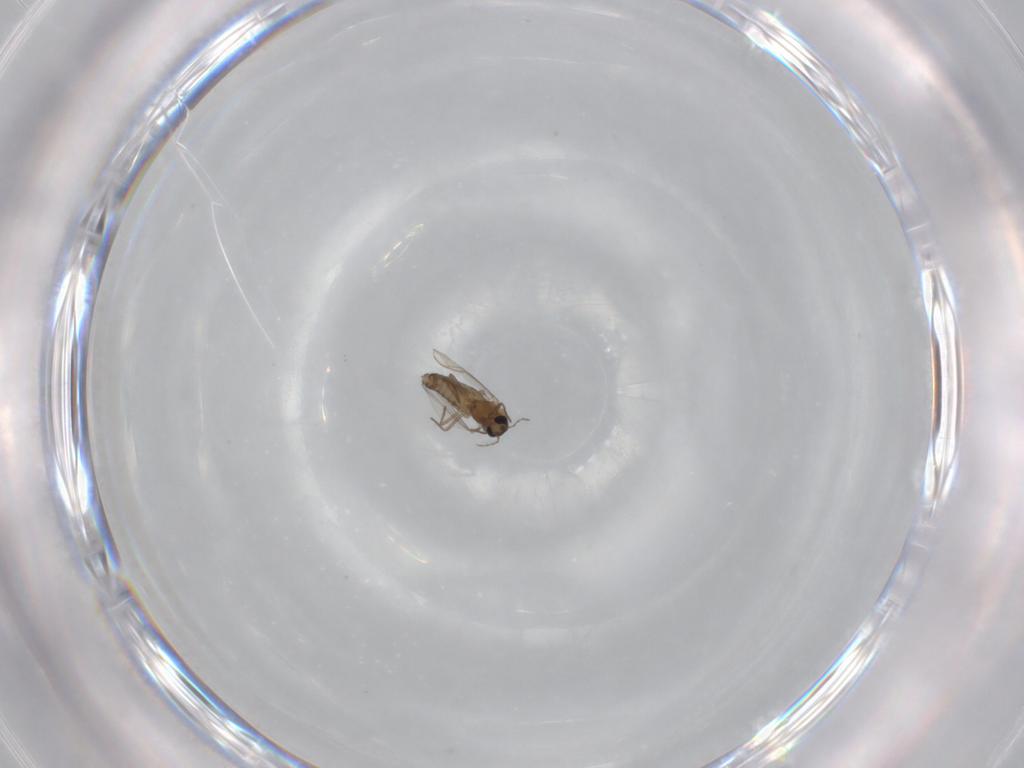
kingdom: Animalia
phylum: Arthropoda
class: Insecta
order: Diptera
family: Chironomidae
